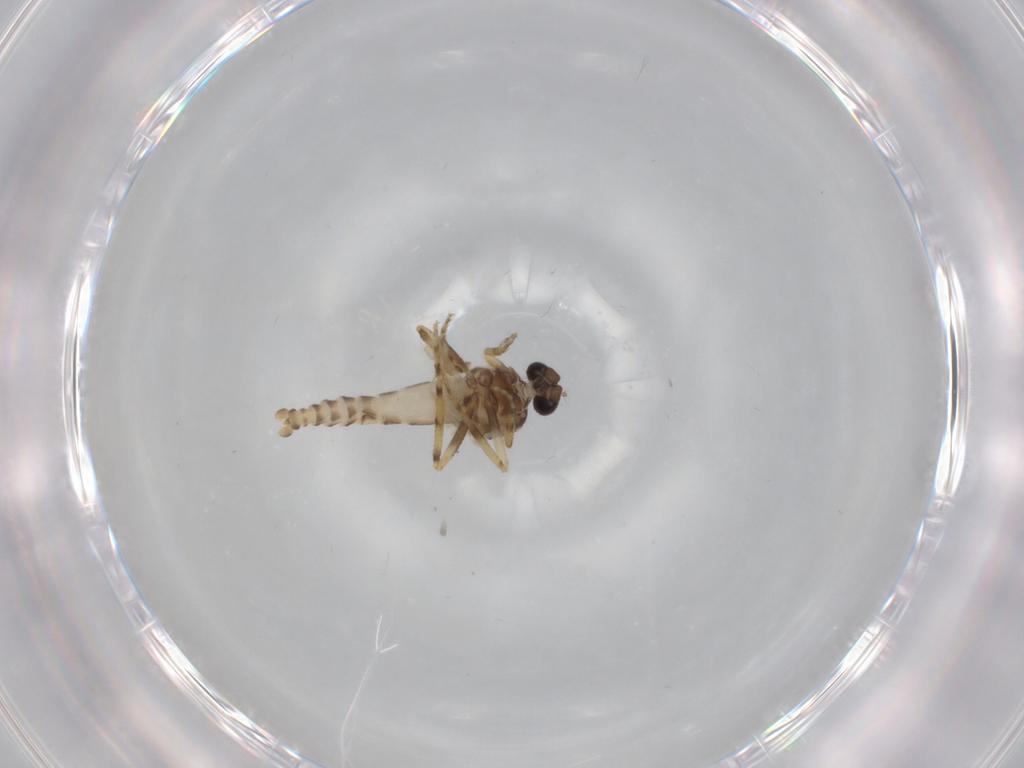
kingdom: Animalia
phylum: Arthropoda
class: Insecta
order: Diptera
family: Ceratopogonidae
